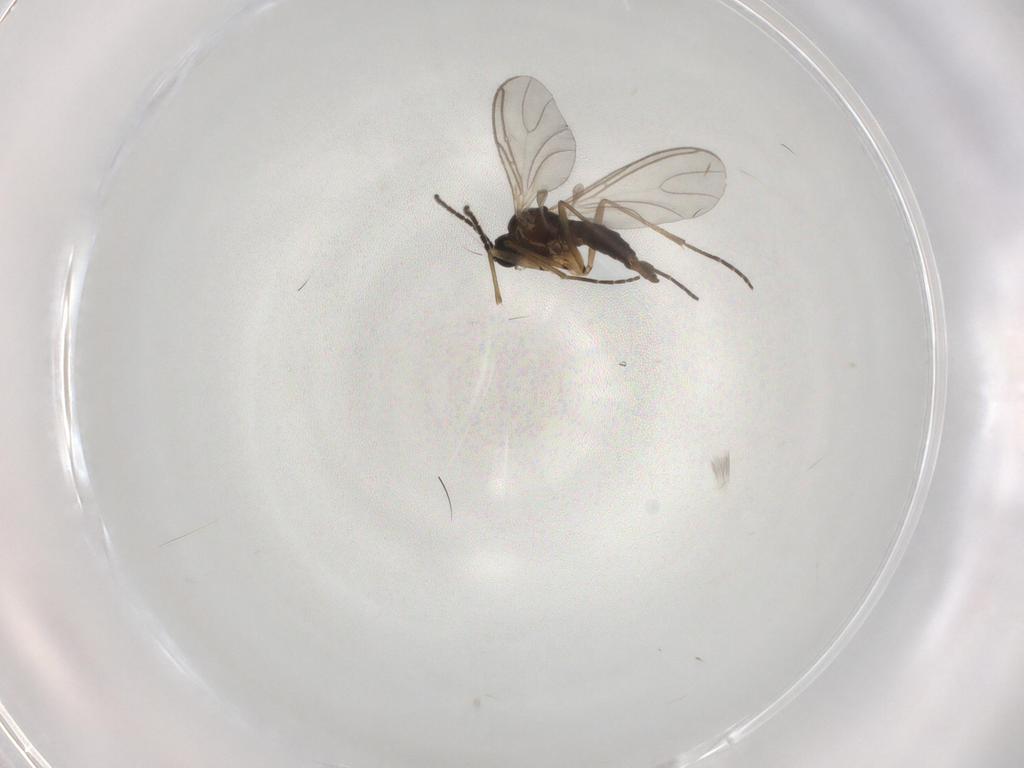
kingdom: Animalia
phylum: Arthropoda
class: Insecta
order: Diptera
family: Sciaridae
